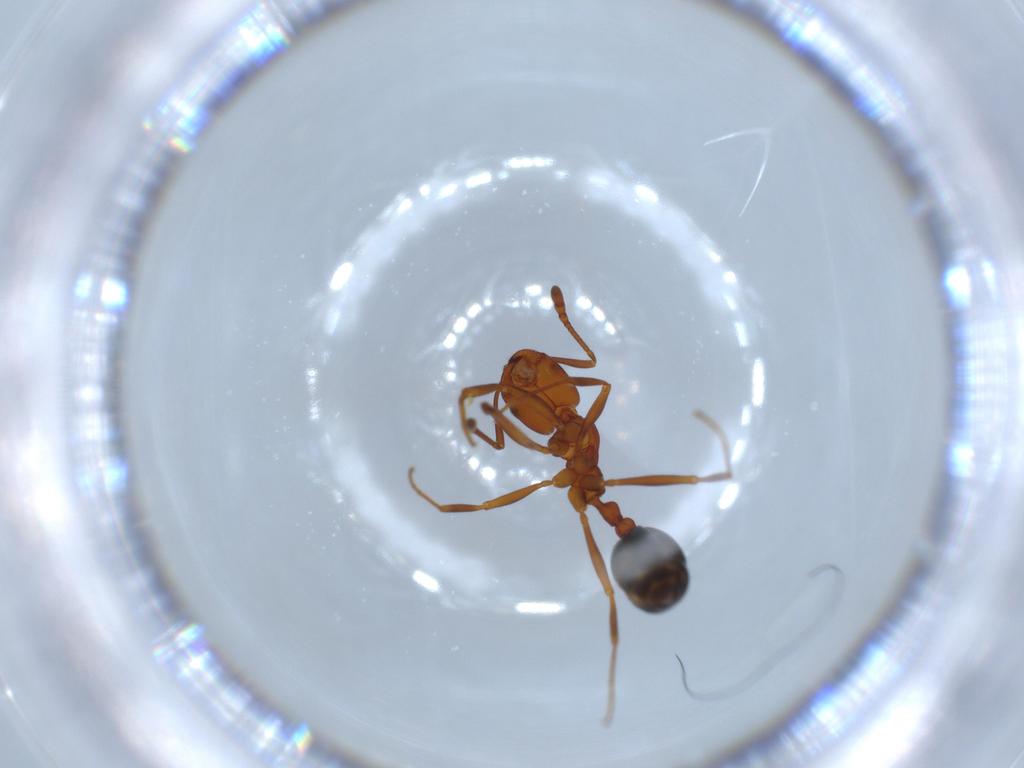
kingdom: Animalia
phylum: Arthropoda
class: Insecta
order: Hymenoptera
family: Formicidae
